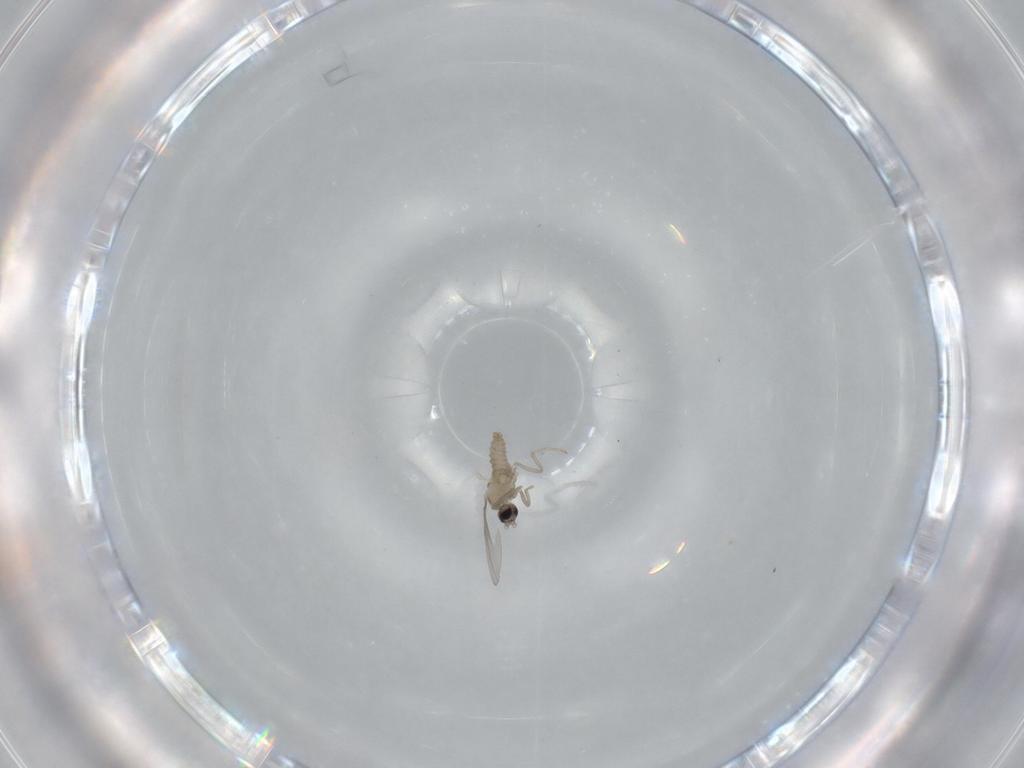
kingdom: Animalia
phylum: Arthropoda
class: Insecta
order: Diptera
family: Cecidomyiidae
